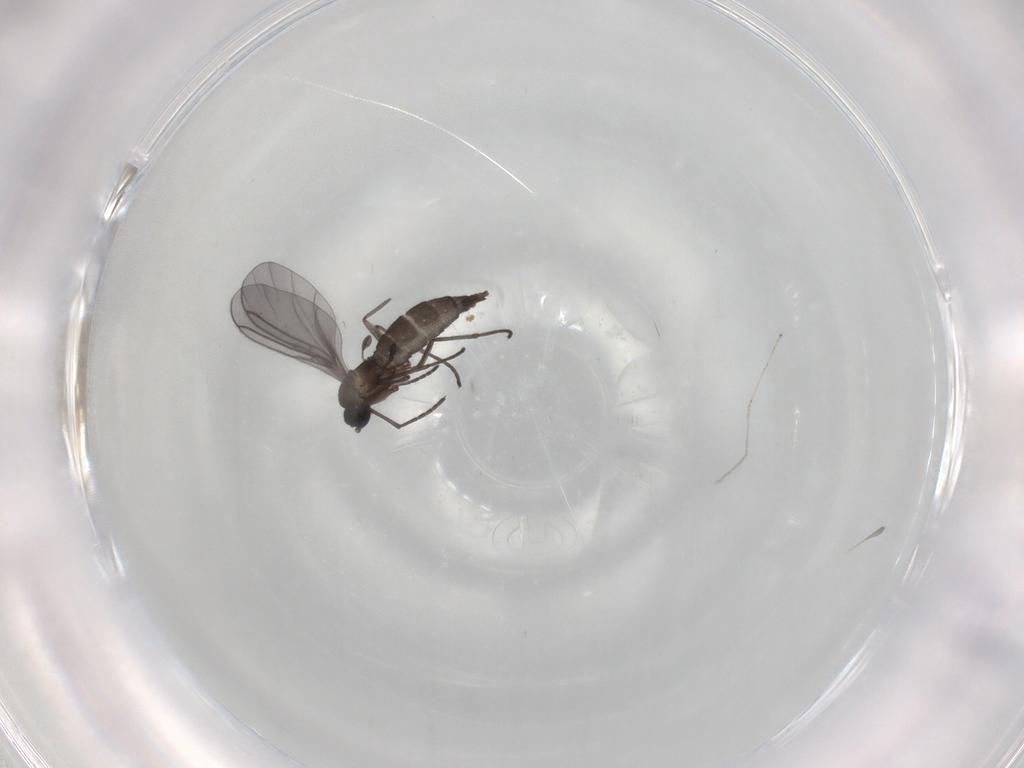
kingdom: Animalia
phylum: Arthropoda
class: Insecta
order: Diptera
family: Sciaridae
